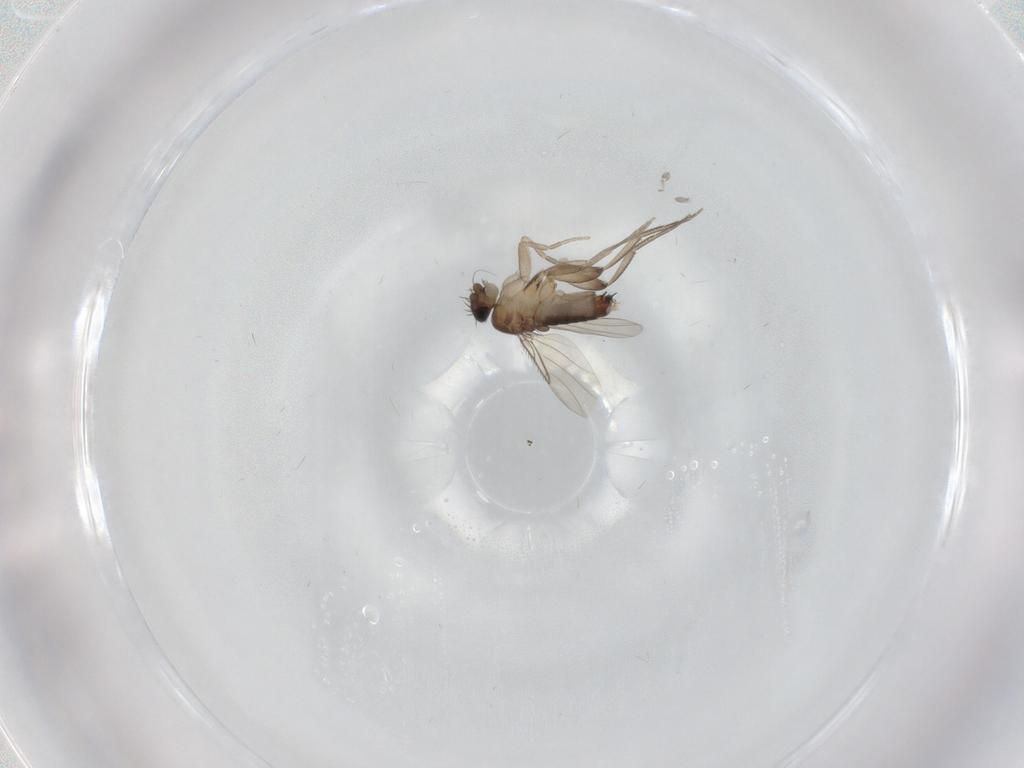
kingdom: Animalia
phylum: Arthropoda
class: Insecta
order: Diptera
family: Phoridae
